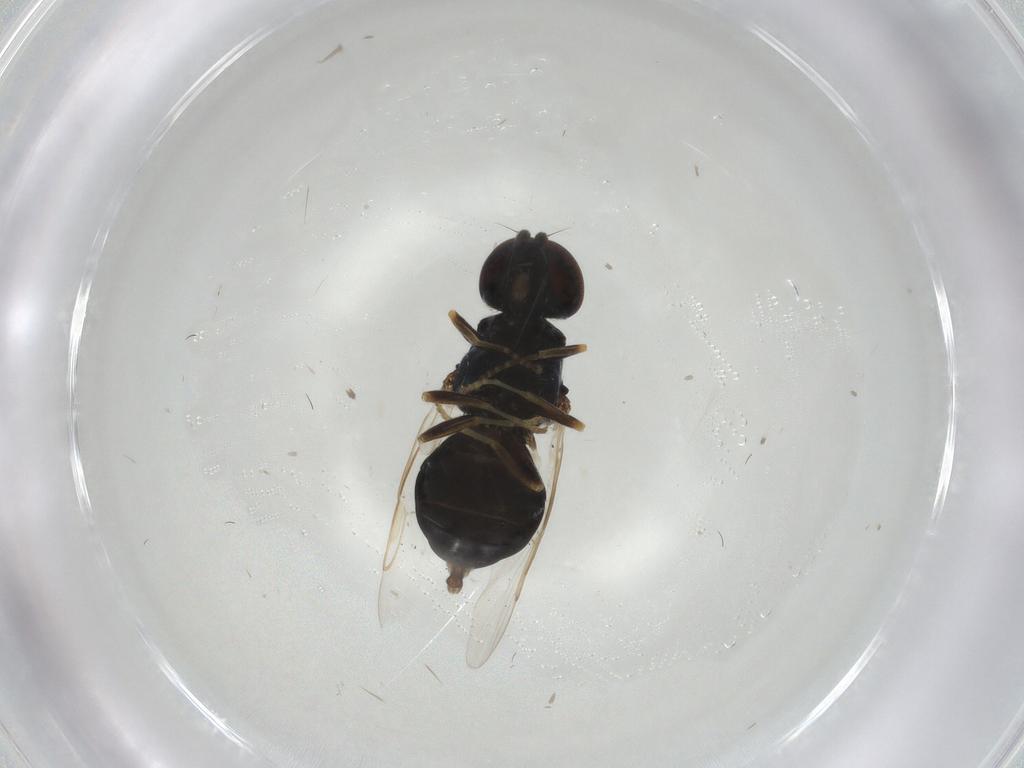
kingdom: Animalia
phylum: Arthropoda
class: Insecta
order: Diptera
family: Stratiomyidae
